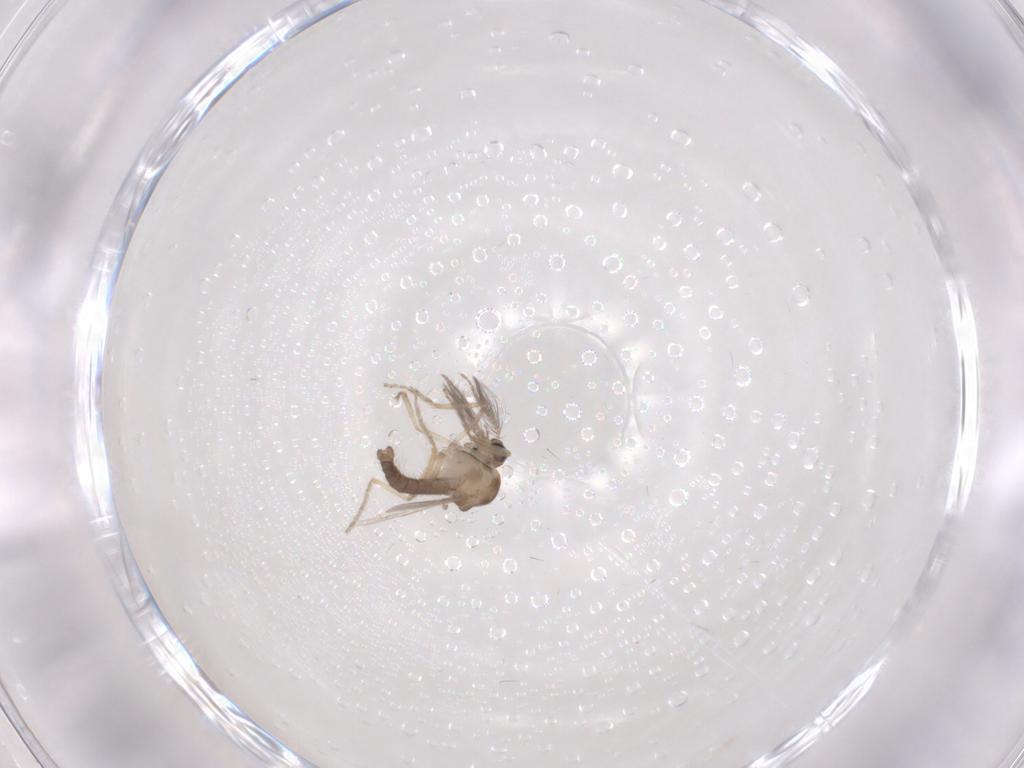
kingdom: Animalia
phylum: Arthropoda
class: Insecta
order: Diptera
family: Ceratopogonidae
